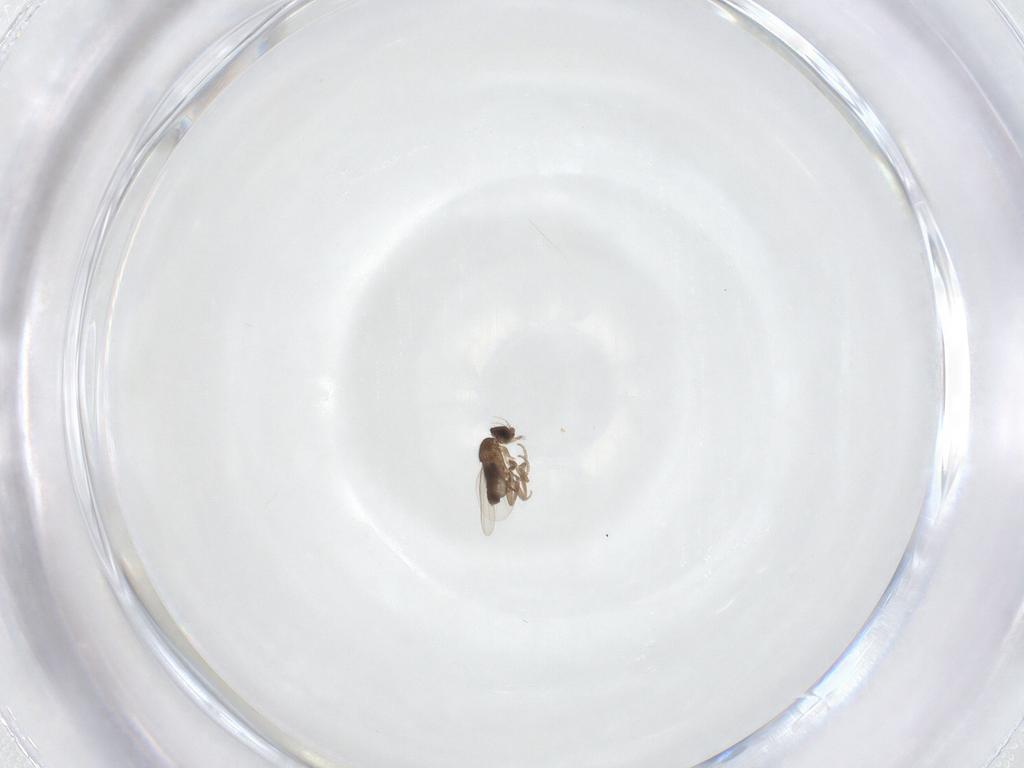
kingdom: Animalia
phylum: Arthropoda
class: Insecta
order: Diptera
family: Phoridae
